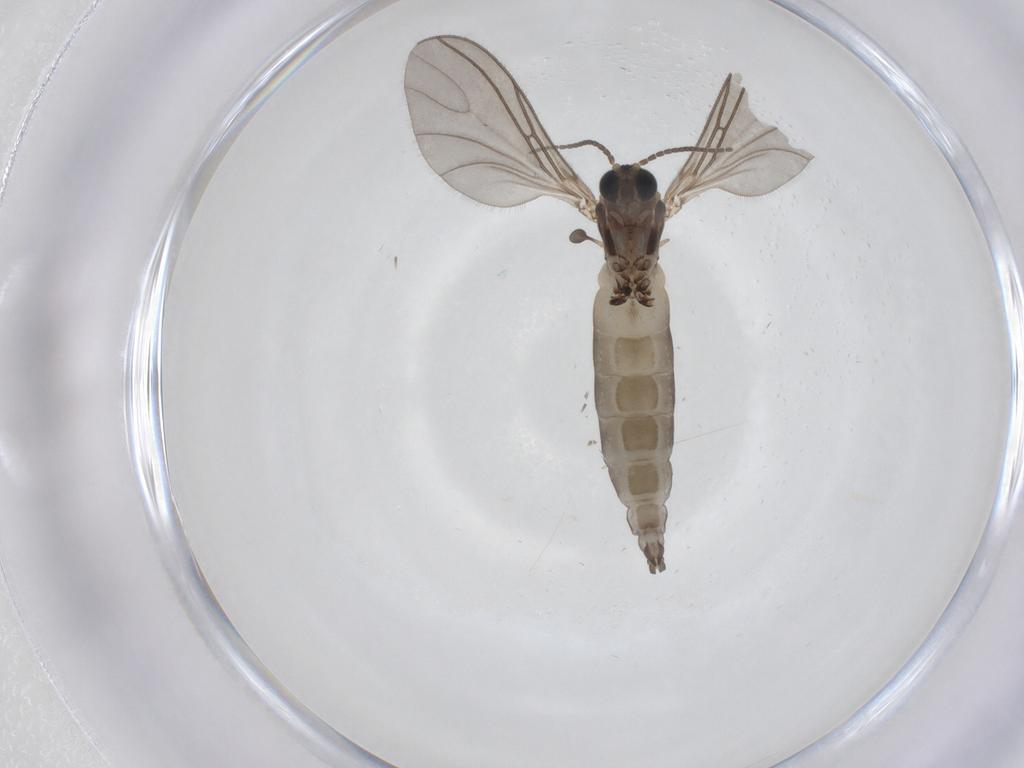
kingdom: Animalia
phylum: Arthropoda
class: Insecta
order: Diptera
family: Sciaridae
